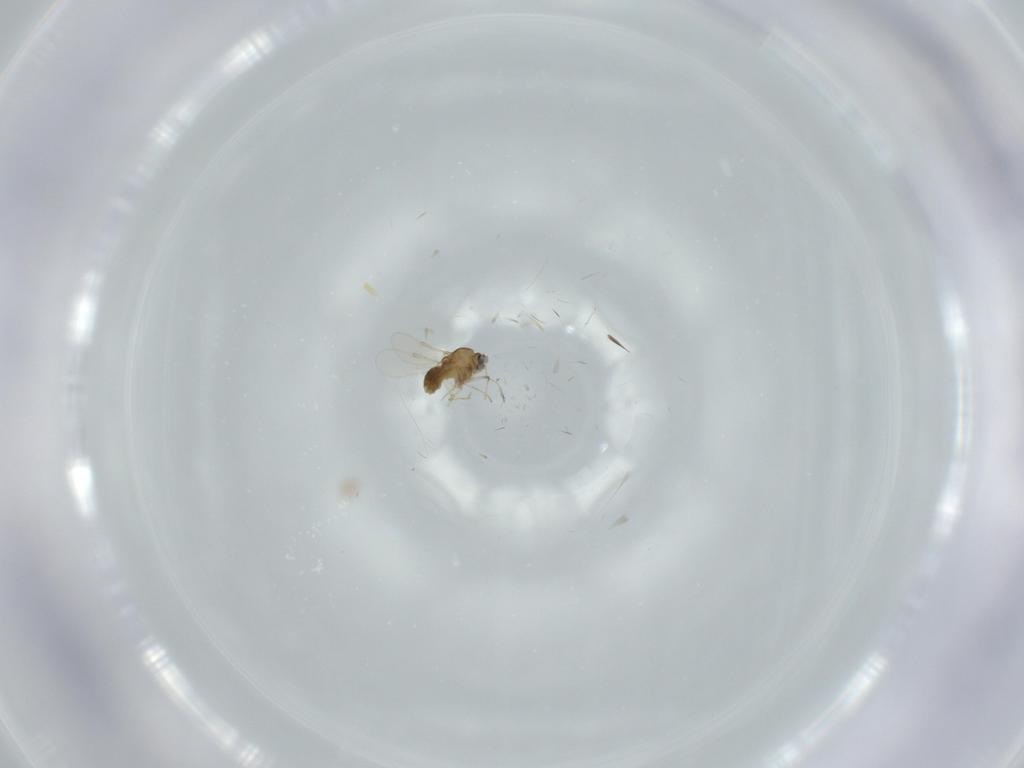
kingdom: Animalia
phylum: Arthropoda
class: Insecta
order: Diptera
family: Chironomidae
